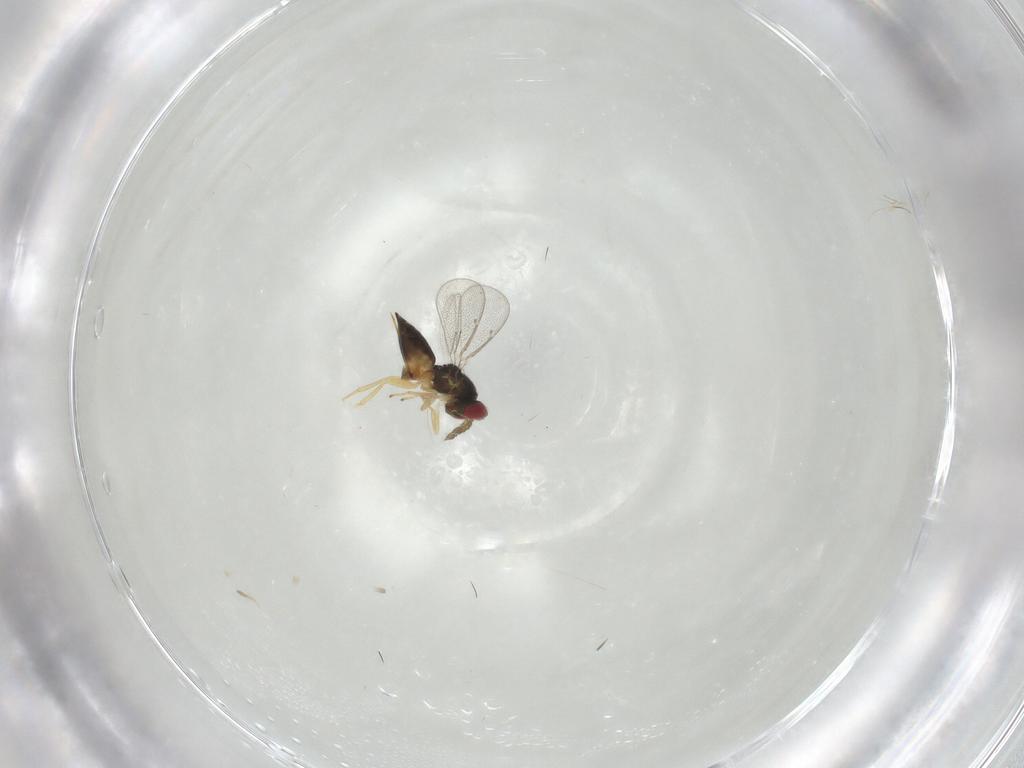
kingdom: Animalia
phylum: Arthropoda
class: Insecta
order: Hymenoptera
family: Eulophidae
